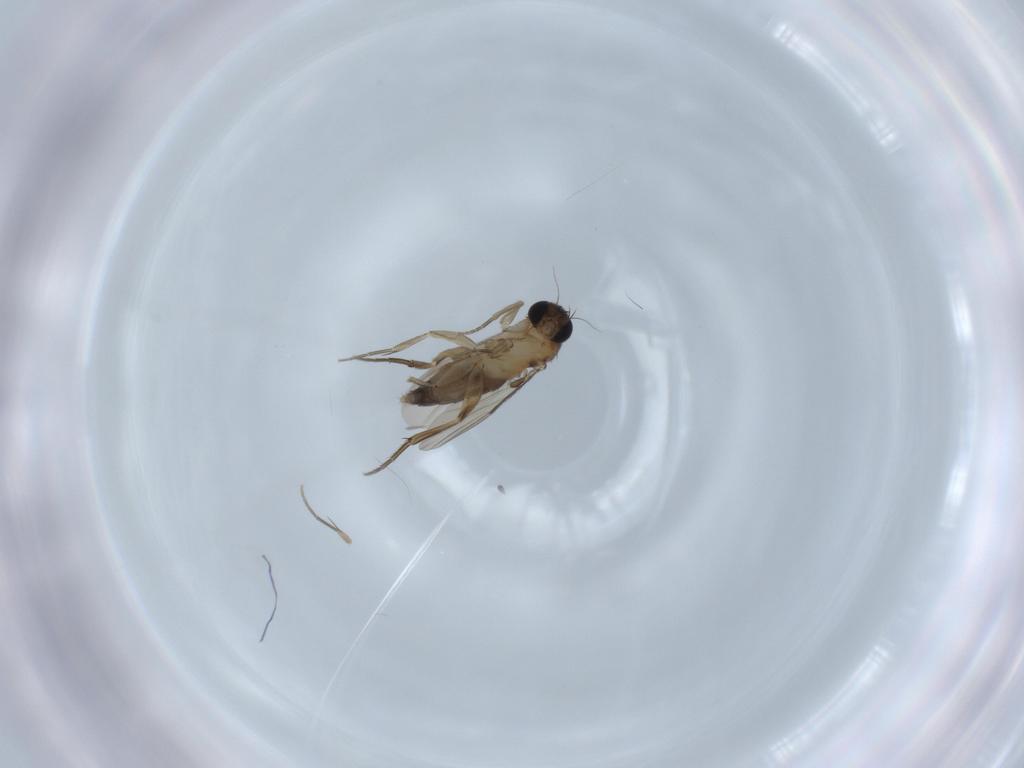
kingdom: Animalia
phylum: Arthropoda
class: Insecta
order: Diptera
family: Phoridae
